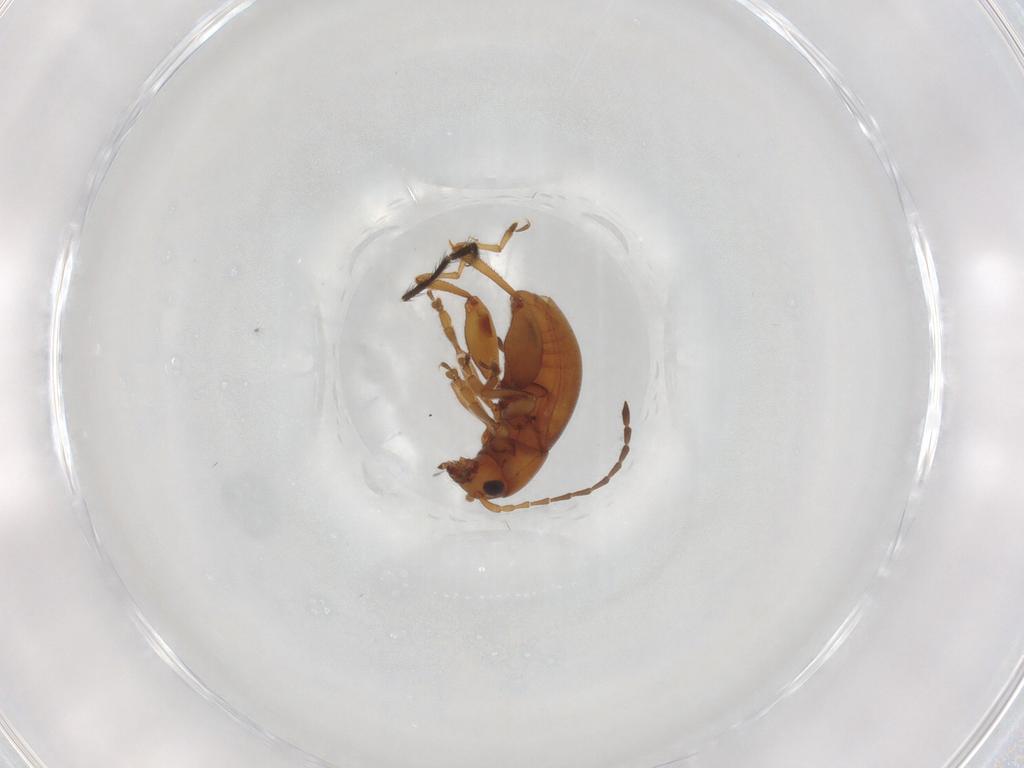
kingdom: Animalia
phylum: Arthropoda
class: Insecta
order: Coleoptera
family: Chrysomelidae
